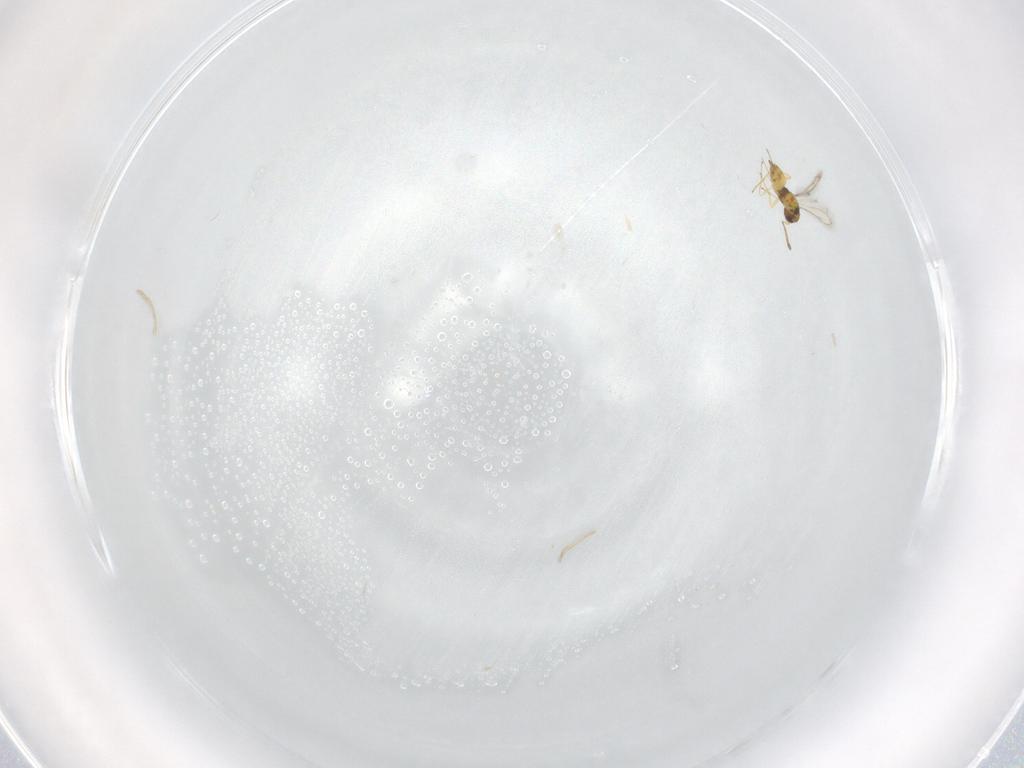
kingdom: Animalia
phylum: Arthropoda
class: Insecta
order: Hymenoptera
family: Mymaridae
